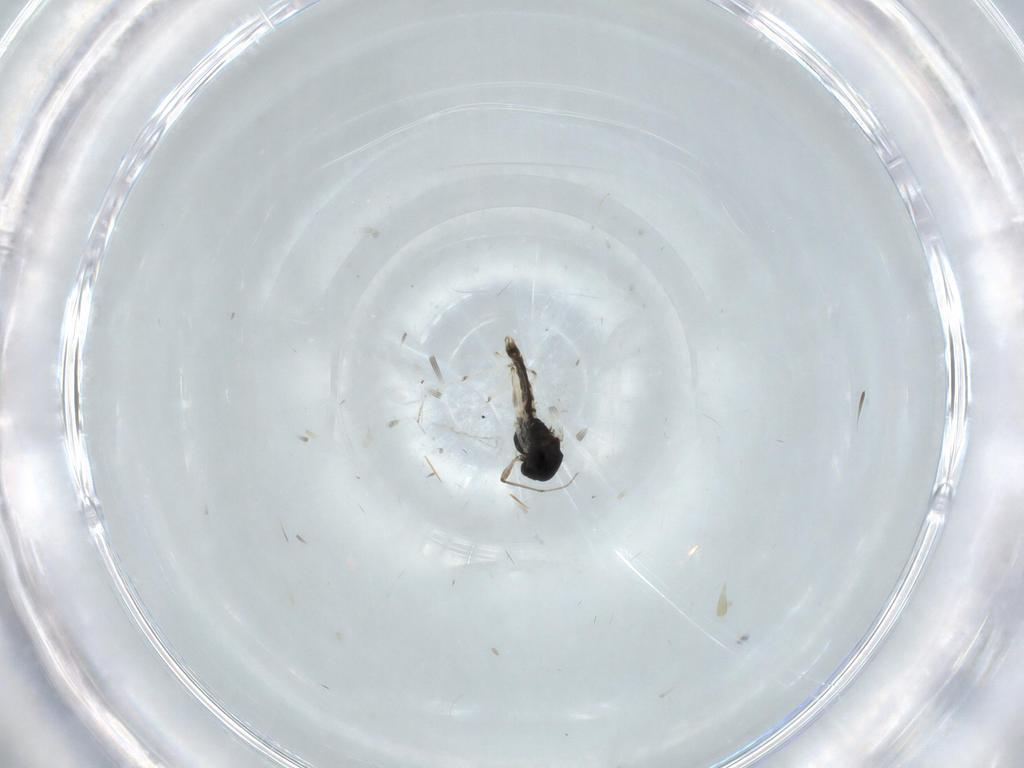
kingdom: Animalia
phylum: Arthropoda
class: Insecta
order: Diptera
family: Chironomidae
